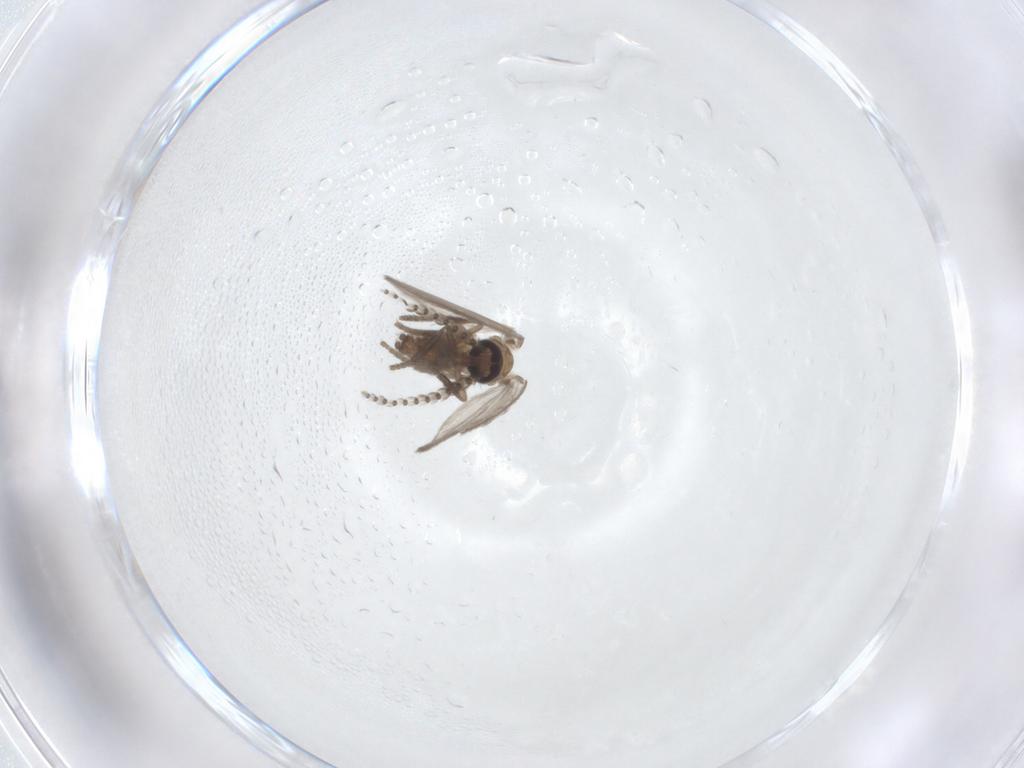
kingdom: Animalia
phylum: Arthropoda
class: Insecta
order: Diptera
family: Psychodidae
